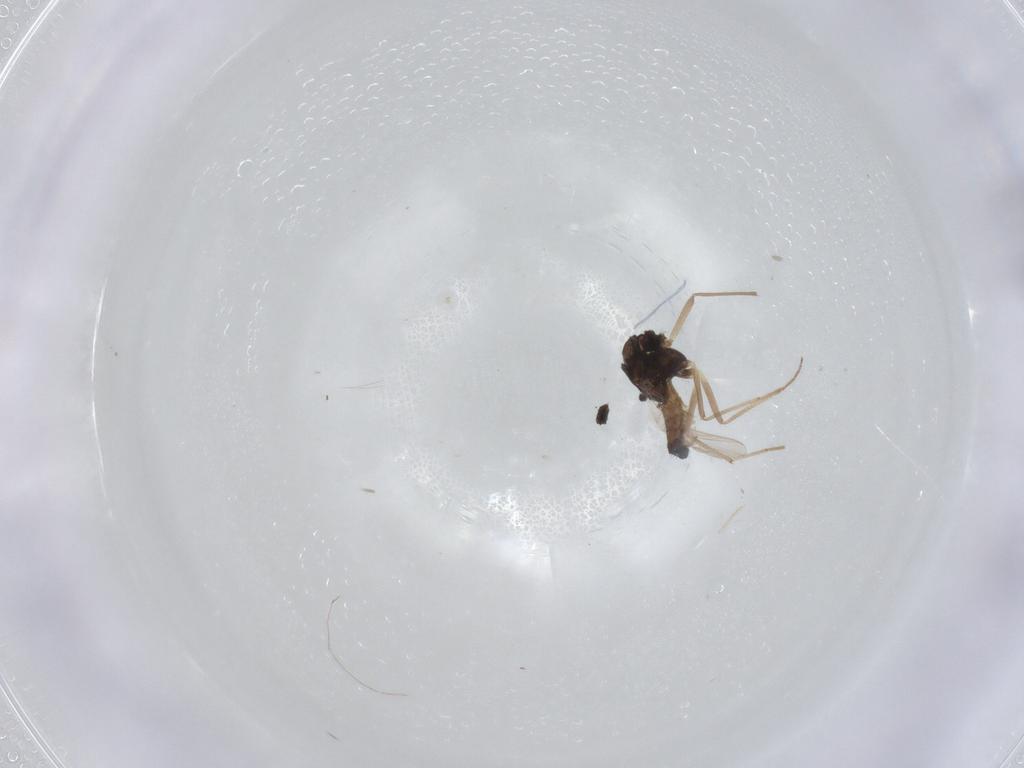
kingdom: Animalia
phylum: Arthropoda
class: Insecta
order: Diptera
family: Chironomidae
